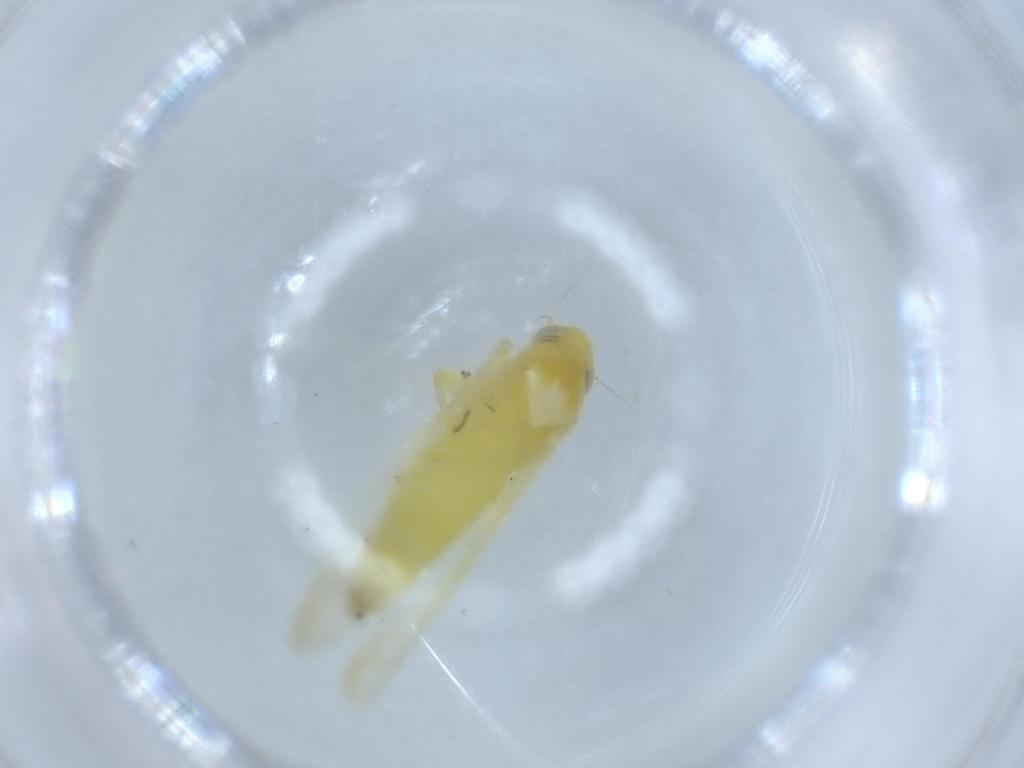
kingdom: Animalia
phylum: Arthropoda
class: Insecta
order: Hemiptera
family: Cicadellidae
